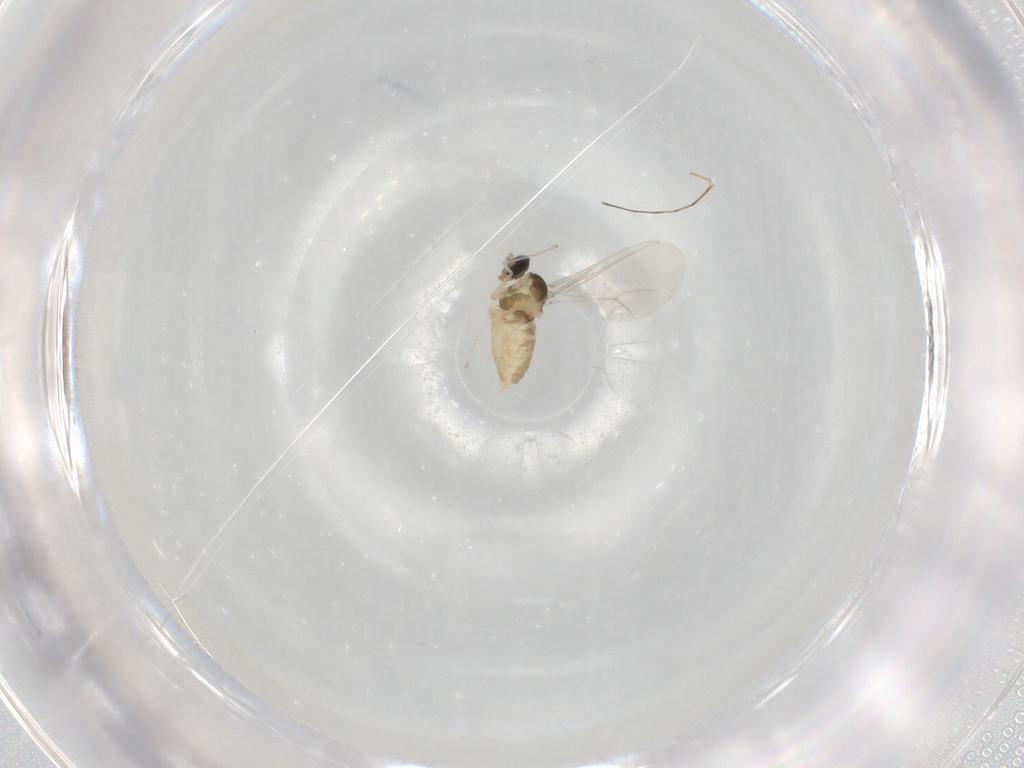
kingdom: Animalia
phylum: Arthropoda
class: Insecta
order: Diptera
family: Cecidomyiidae
